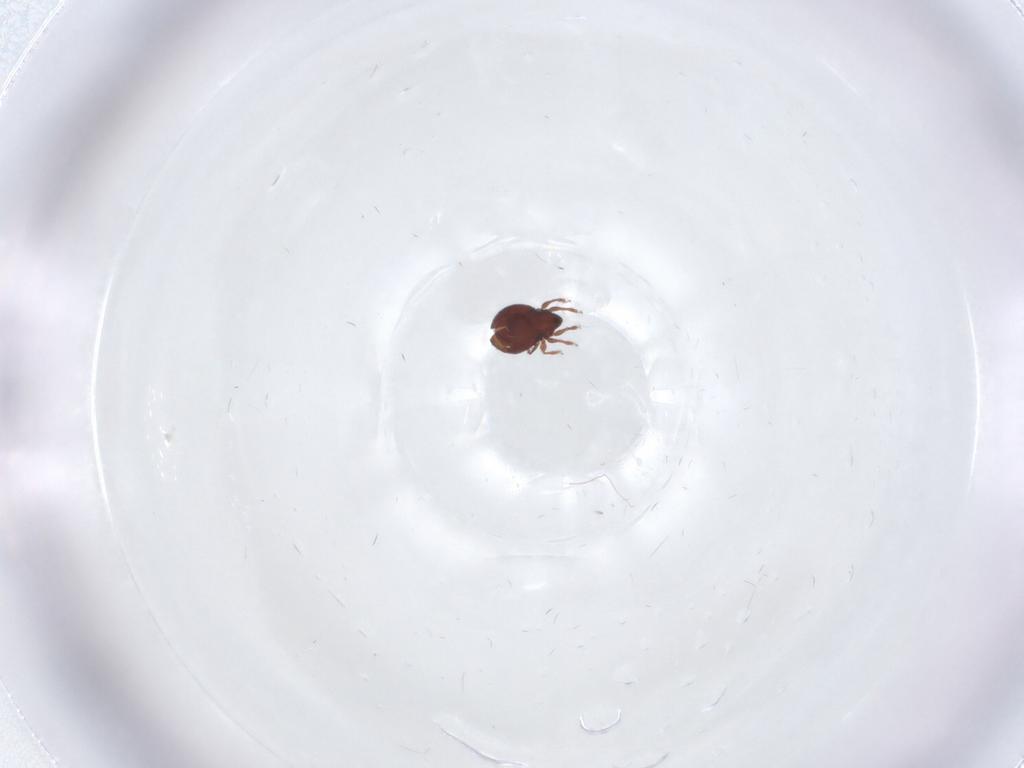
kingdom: Animalia
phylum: Arthropoda
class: Arachnida
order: Sarcoptiformes
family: Achipteriidae
